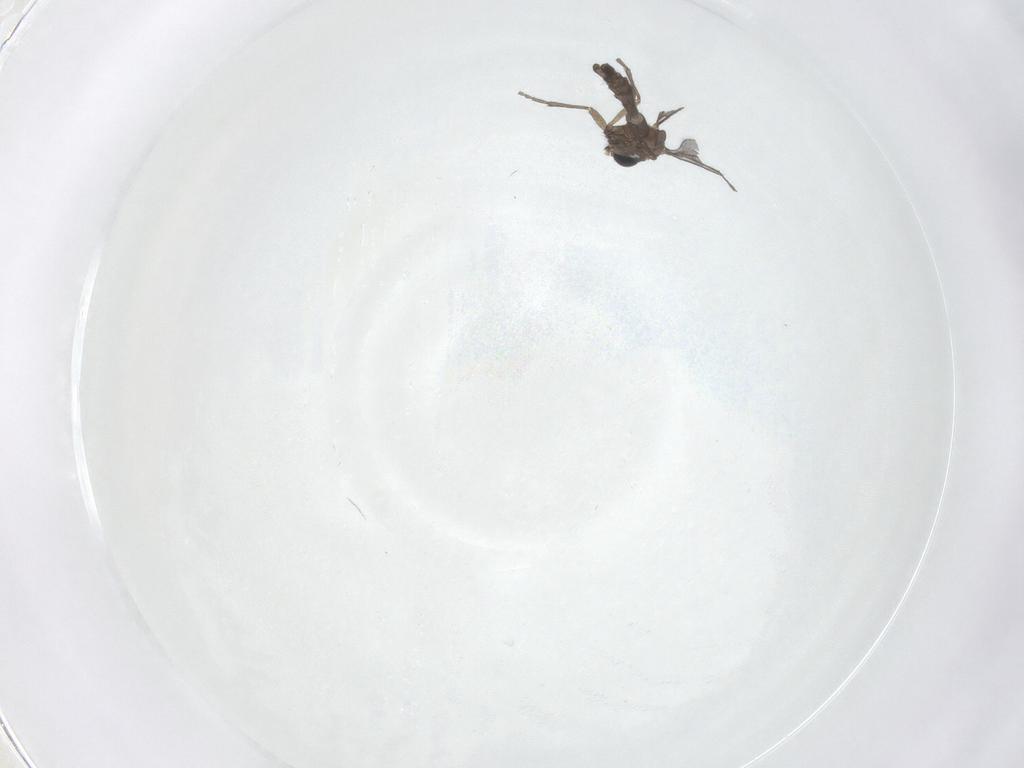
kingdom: Animalia
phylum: Arthropoda
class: Insecta
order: Diptera
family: Sciaridae
